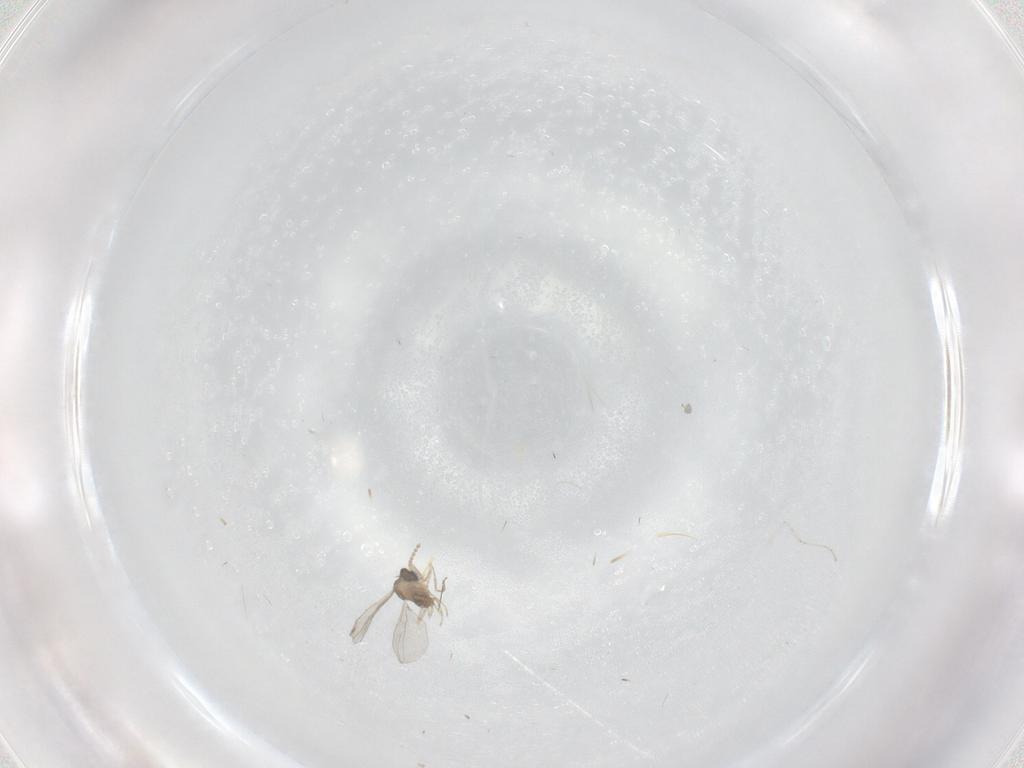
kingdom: Animalia
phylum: Arthropoda
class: Insecta
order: Diptera
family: Cecidomyiidae
